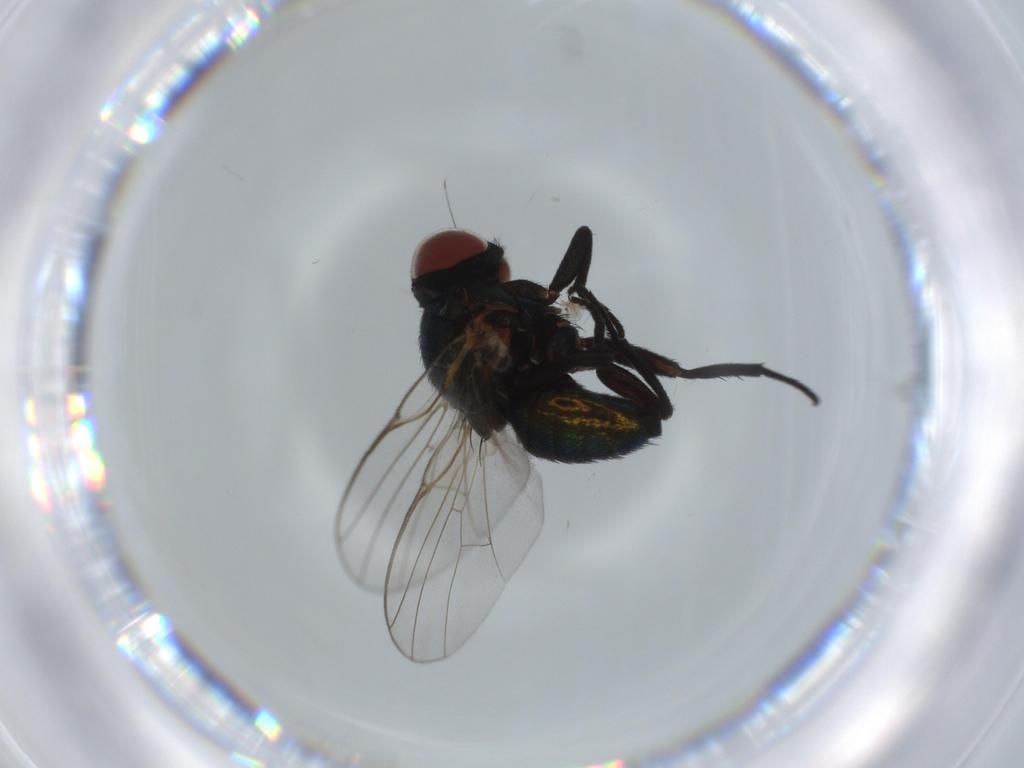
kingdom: Animalia
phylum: Arthropoda
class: Insecta
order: Diptera
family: Agromyzidae
